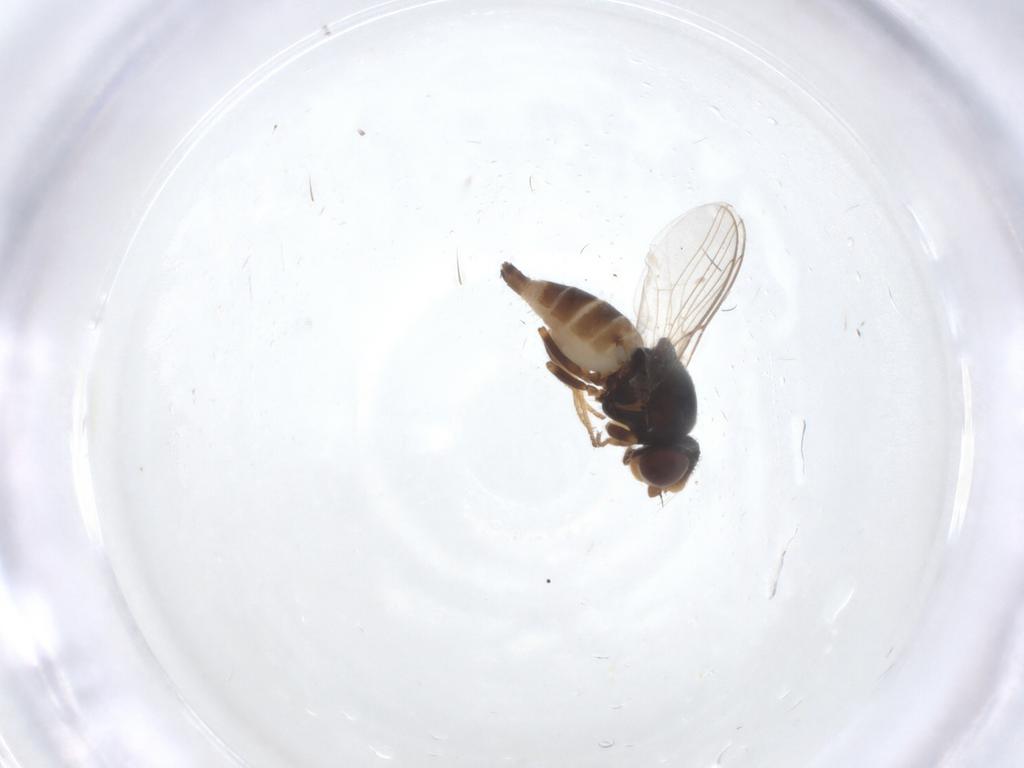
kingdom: Animalia
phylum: Arthropoda
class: Insecta
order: Diptera
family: Chloropidae
